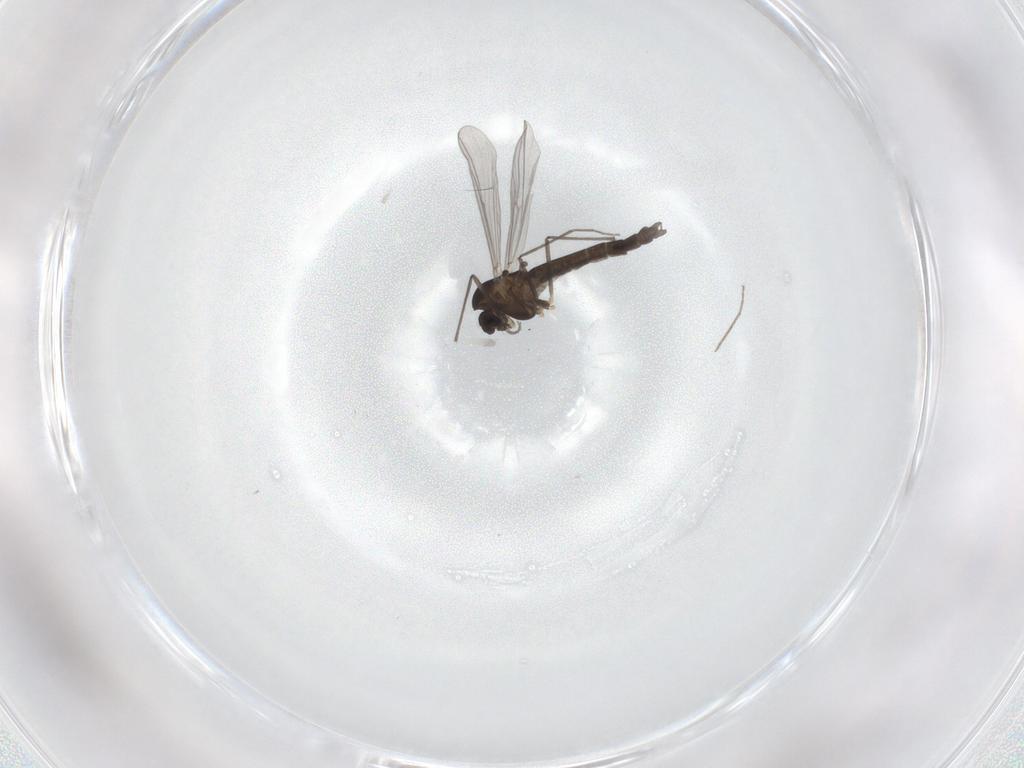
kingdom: Animalia
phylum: Arthropoda
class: Insecta
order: Diptera
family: Chironomidae
